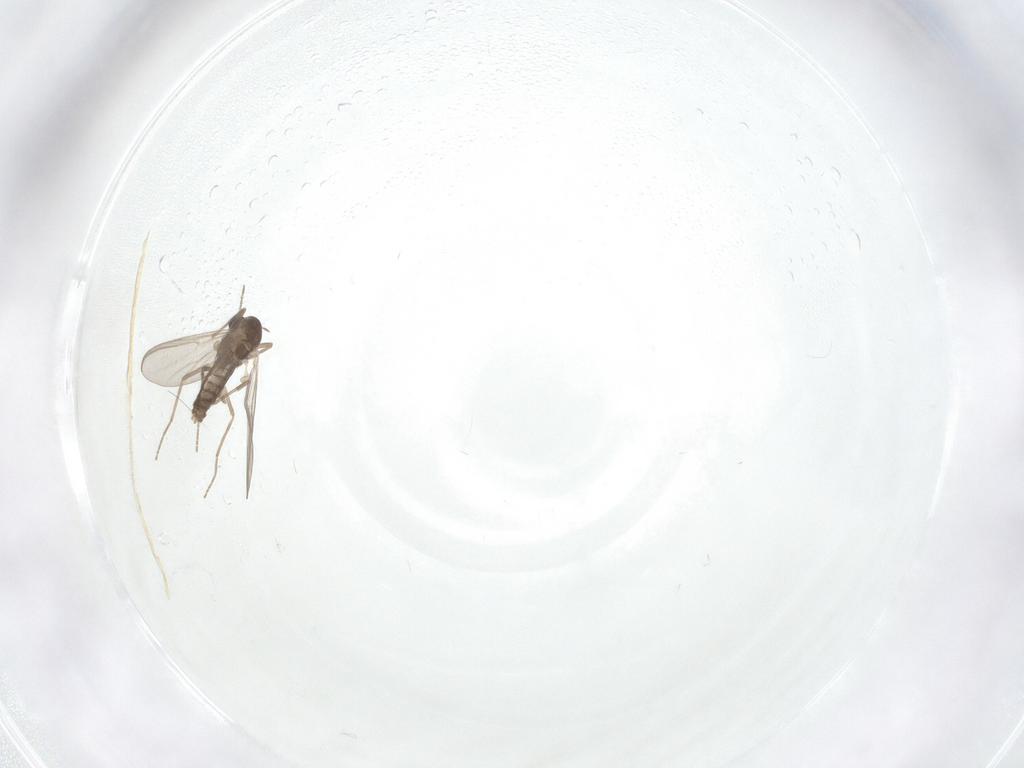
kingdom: Animalia
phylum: Arthropoda
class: Insecta
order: Diptera
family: Chironomidae
